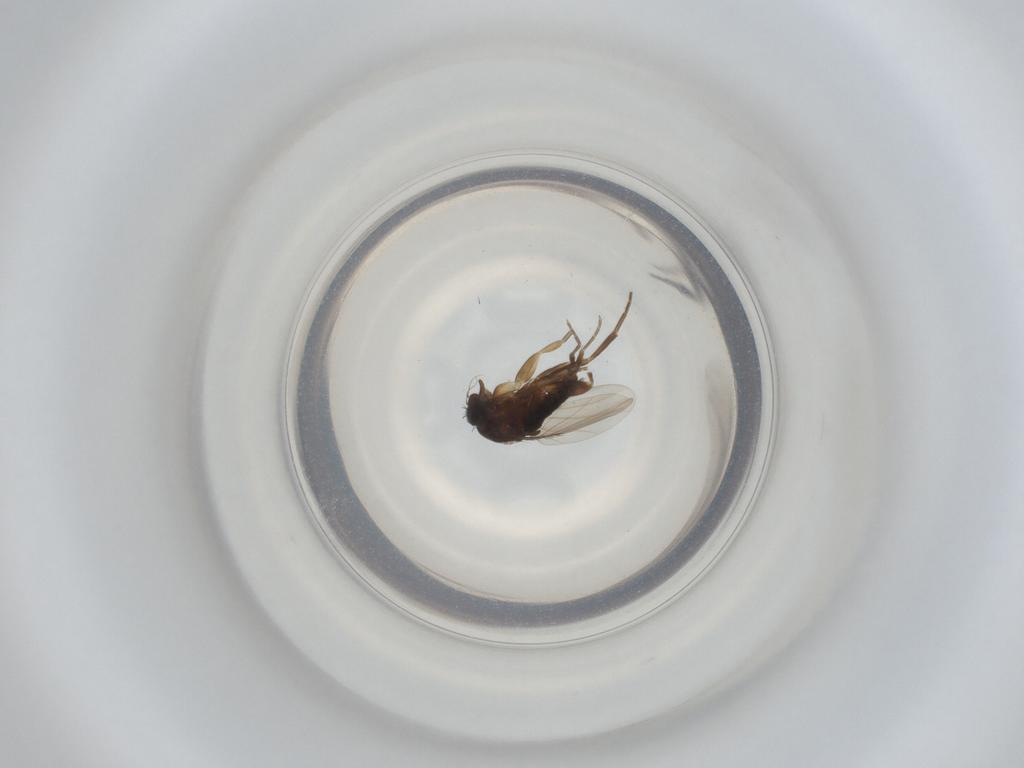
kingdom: Animalia
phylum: Arthropoda
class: Insecta
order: Diptera
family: Phoridae
